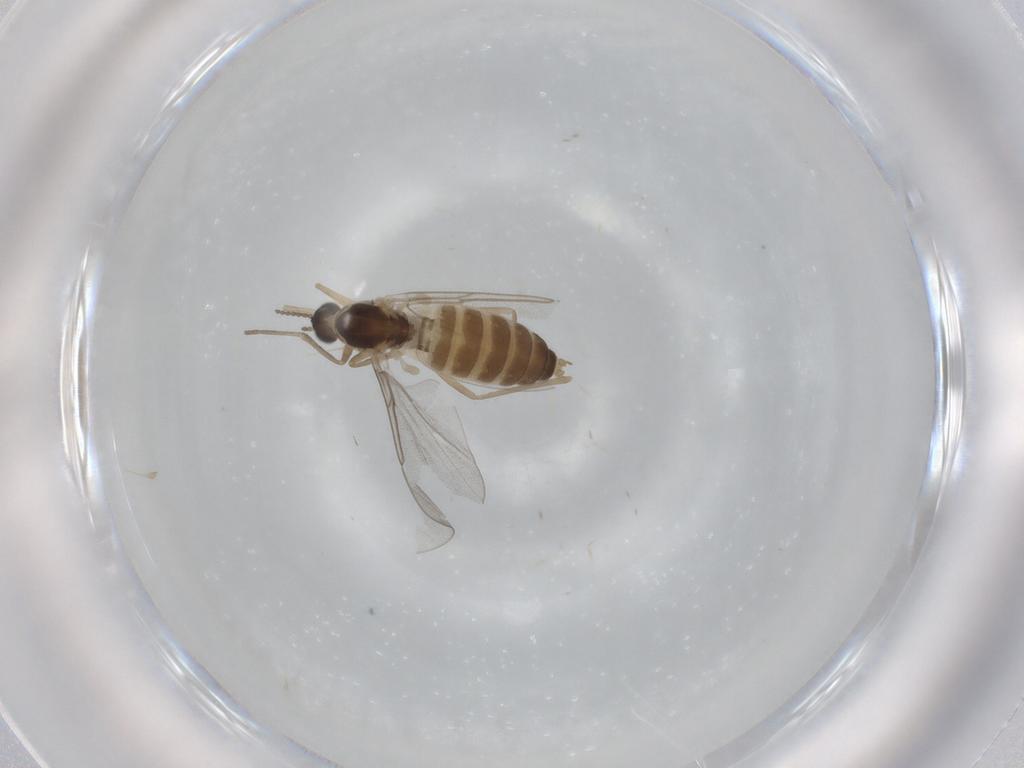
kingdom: Animalia
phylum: Arthropoda
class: Insecta
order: Diptera
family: Cecidomyiidae
